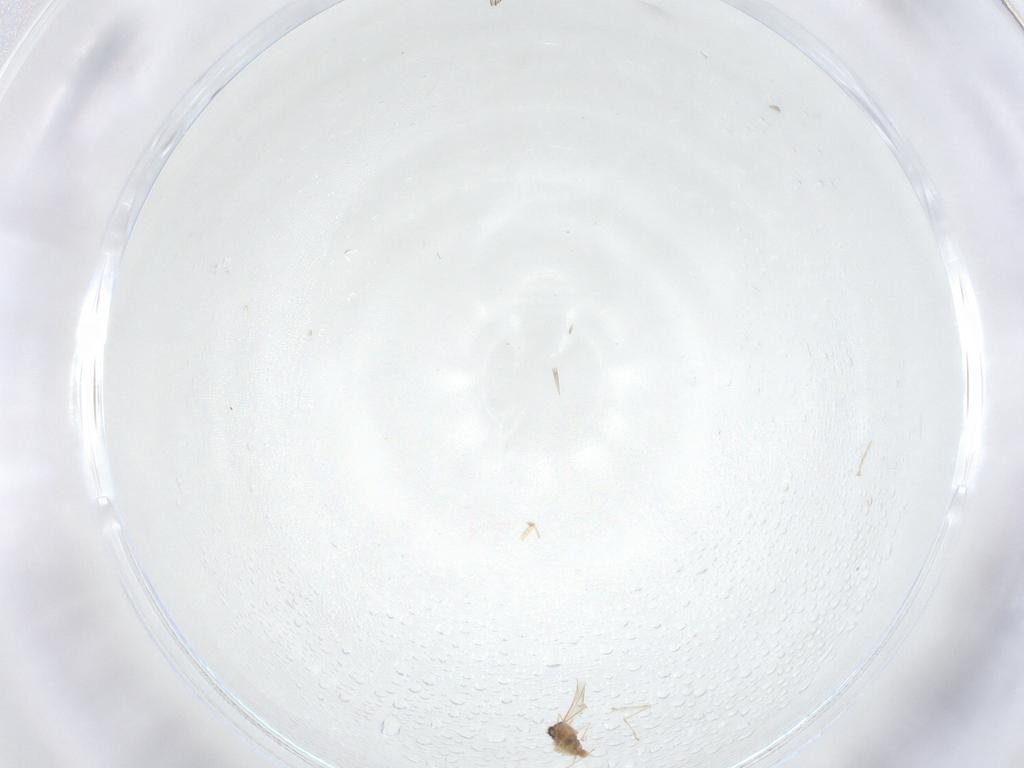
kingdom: Animalia
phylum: Arthropoda
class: Insecta
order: Diptera
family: Cecidomyiidae
